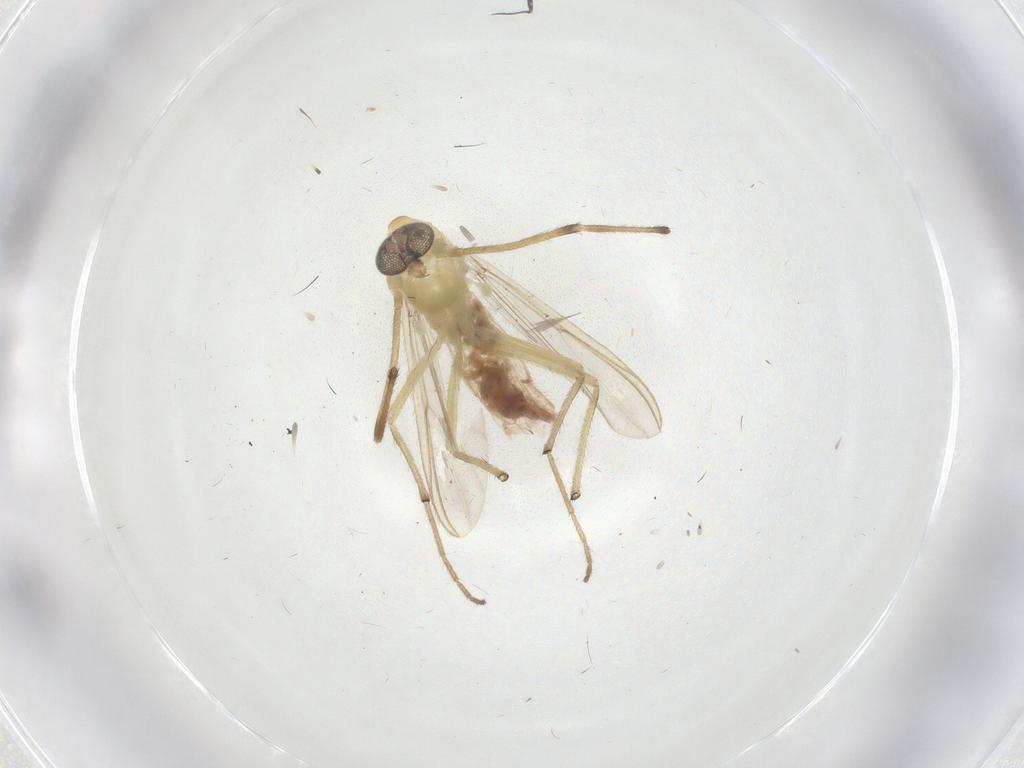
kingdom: Animalia
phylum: Arthropoda
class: Insecta
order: Diptera
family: Chironomidae
